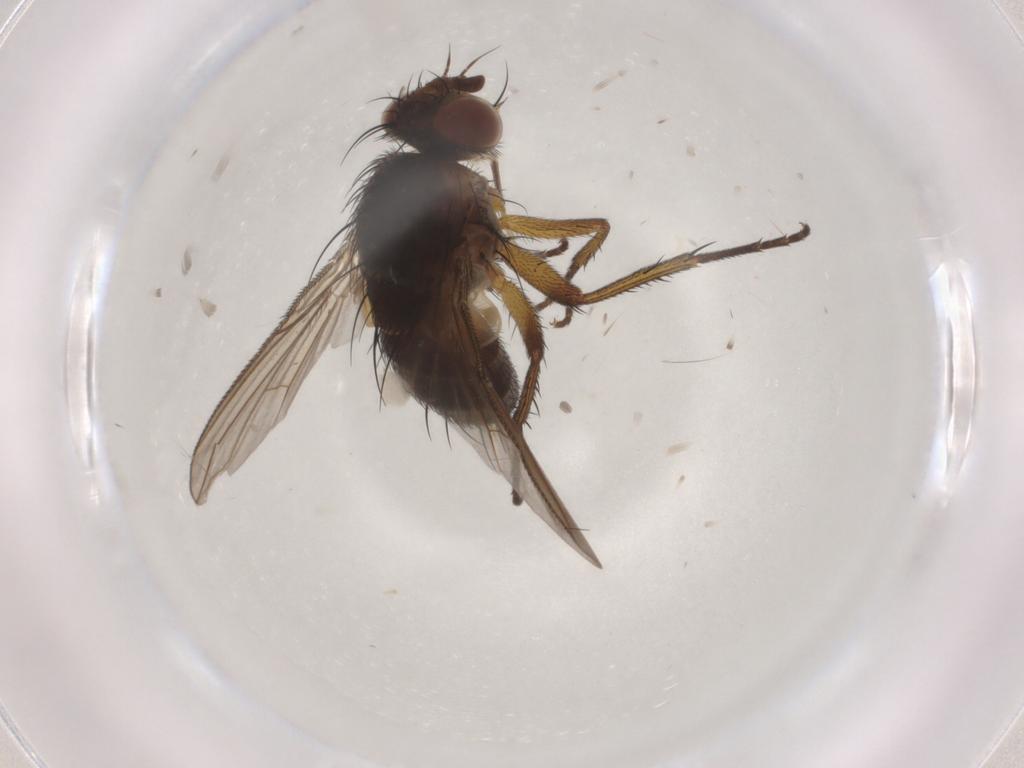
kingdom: Animalia
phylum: Arthropoda
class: Insecta
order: Diptera
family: Tachinidae
